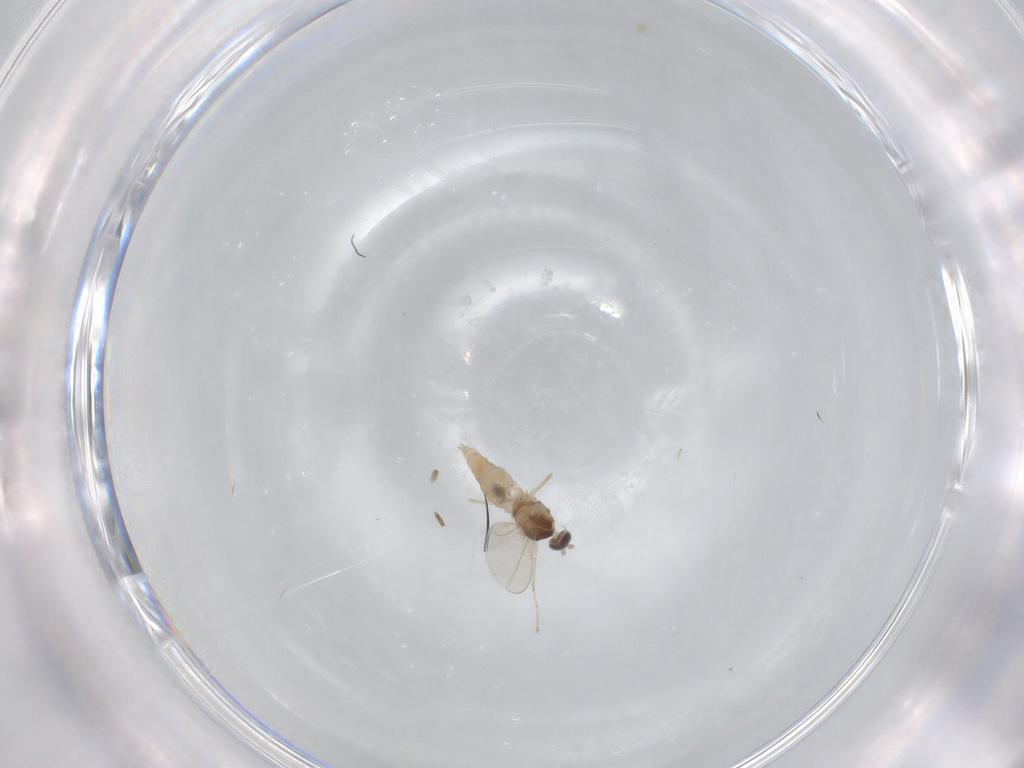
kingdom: Animalia
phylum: Arthropoda
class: Insecta
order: Diptera
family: Cecidomyiidae
